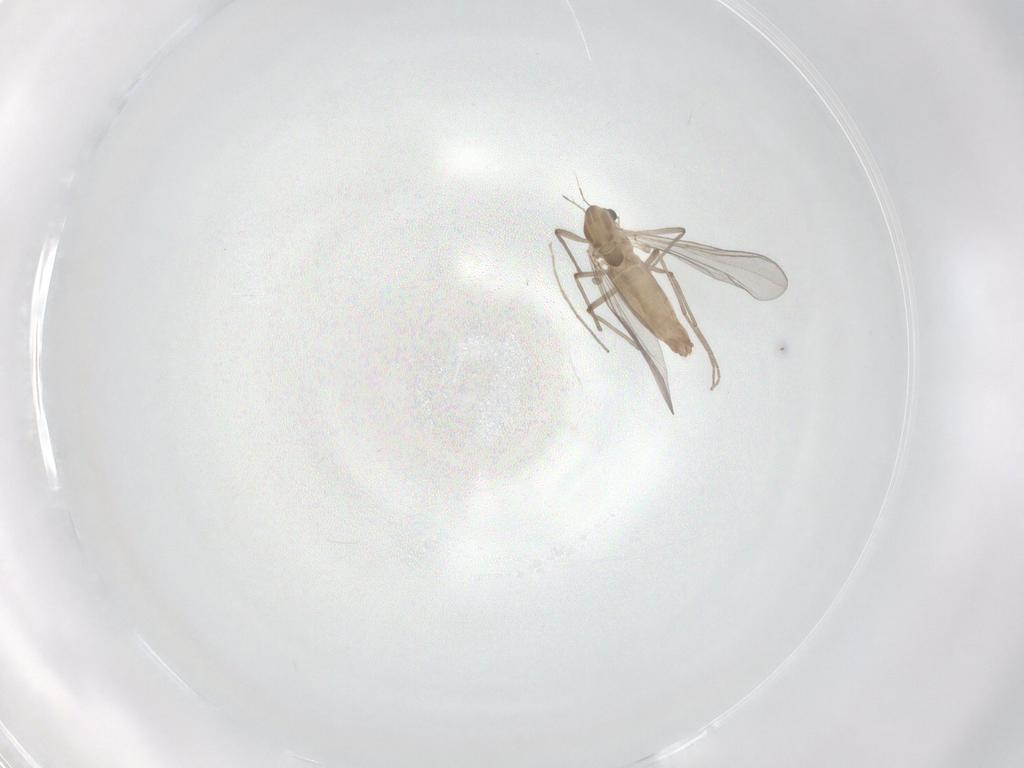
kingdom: Animalia
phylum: Arthropoda
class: Insecta
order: Diptera
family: Chironomidae
